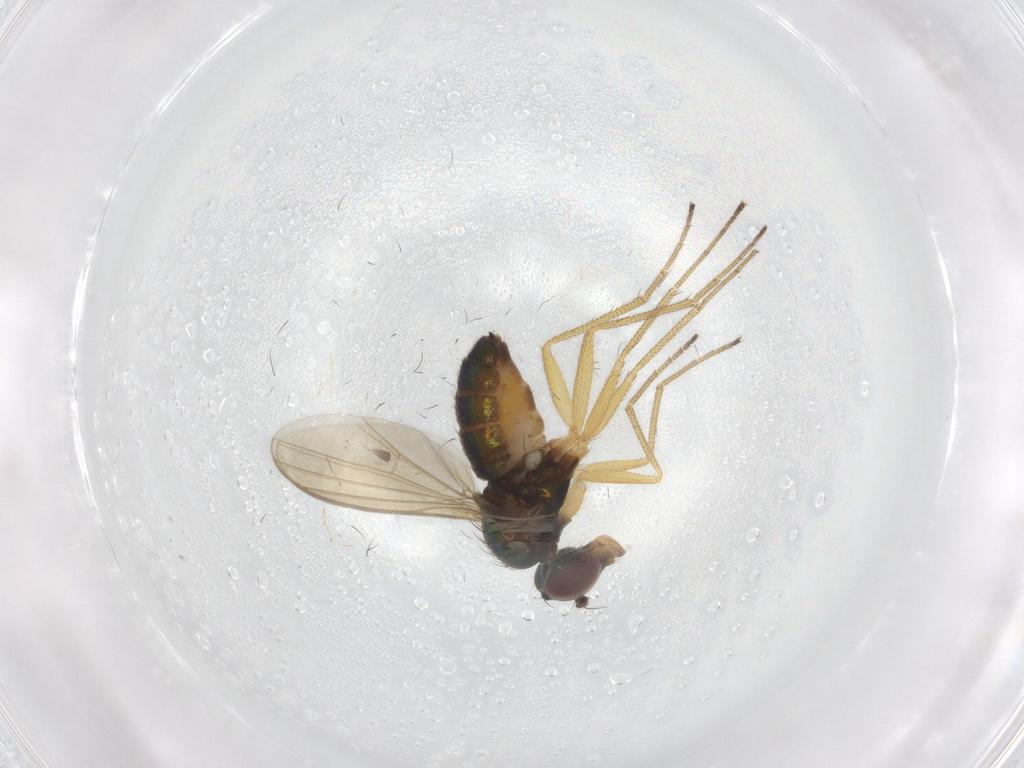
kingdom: Animalia
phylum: Arthropoda
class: Insecta
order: Diptera
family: Dolichopodidae
